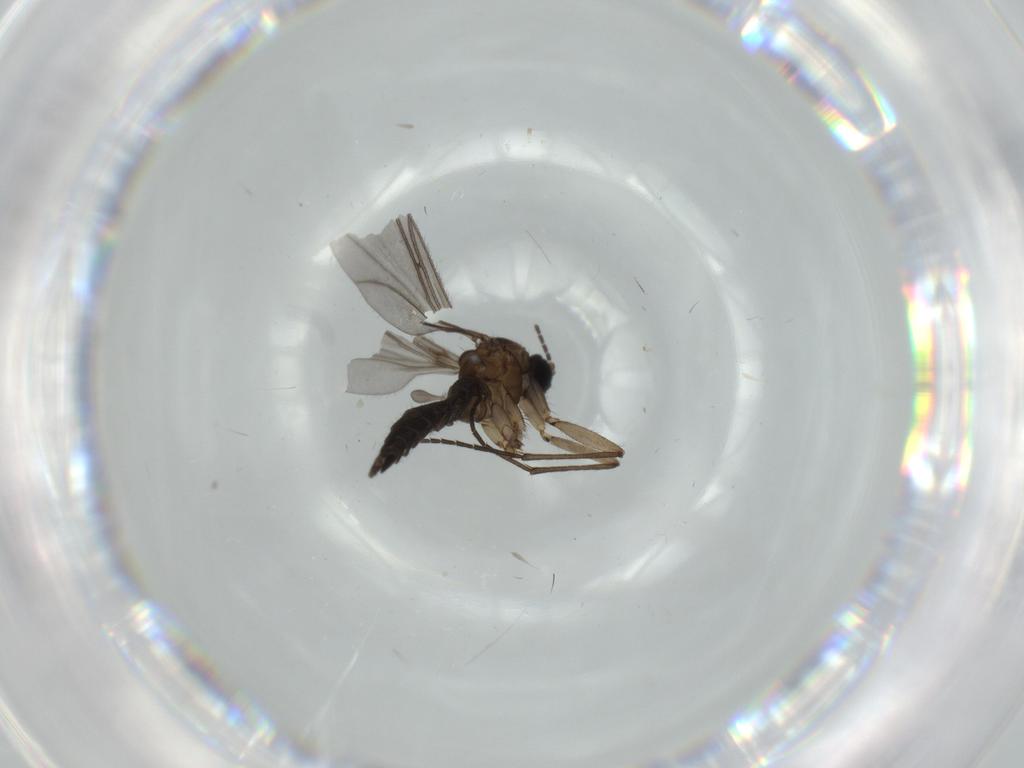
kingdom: Animalia
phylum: Arthropoda
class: Insecta
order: Diptera
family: Sciaridae
